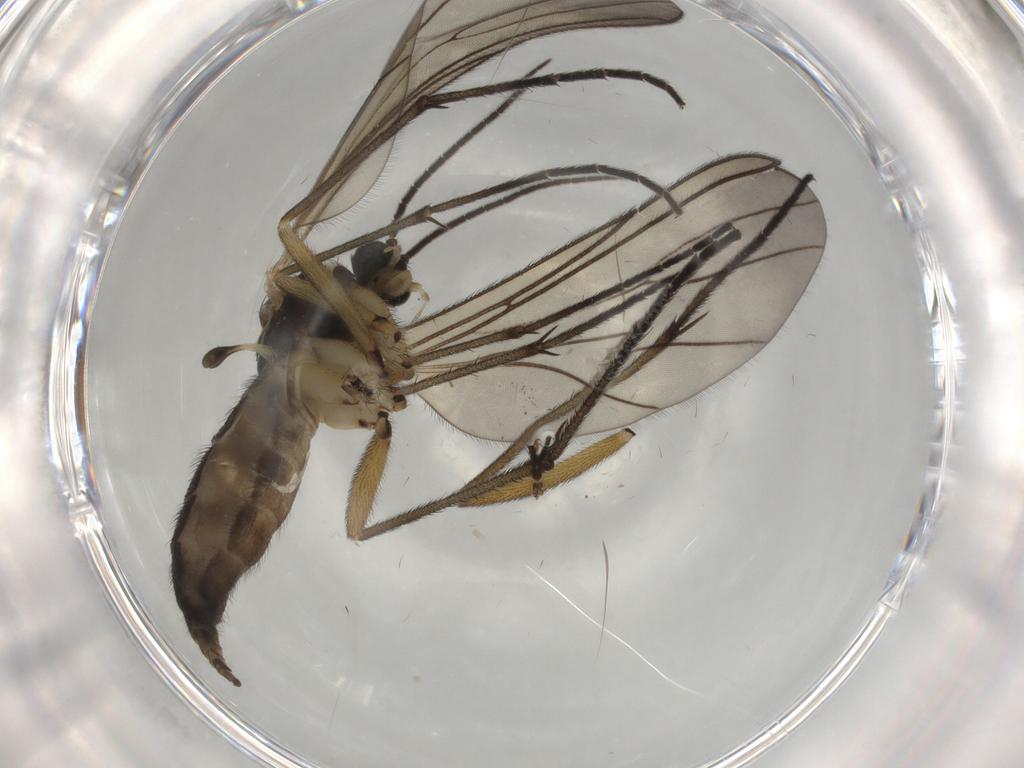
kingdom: Animalia
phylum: Arthropoda
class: Insecta
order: Diptera
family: Sciaridae
